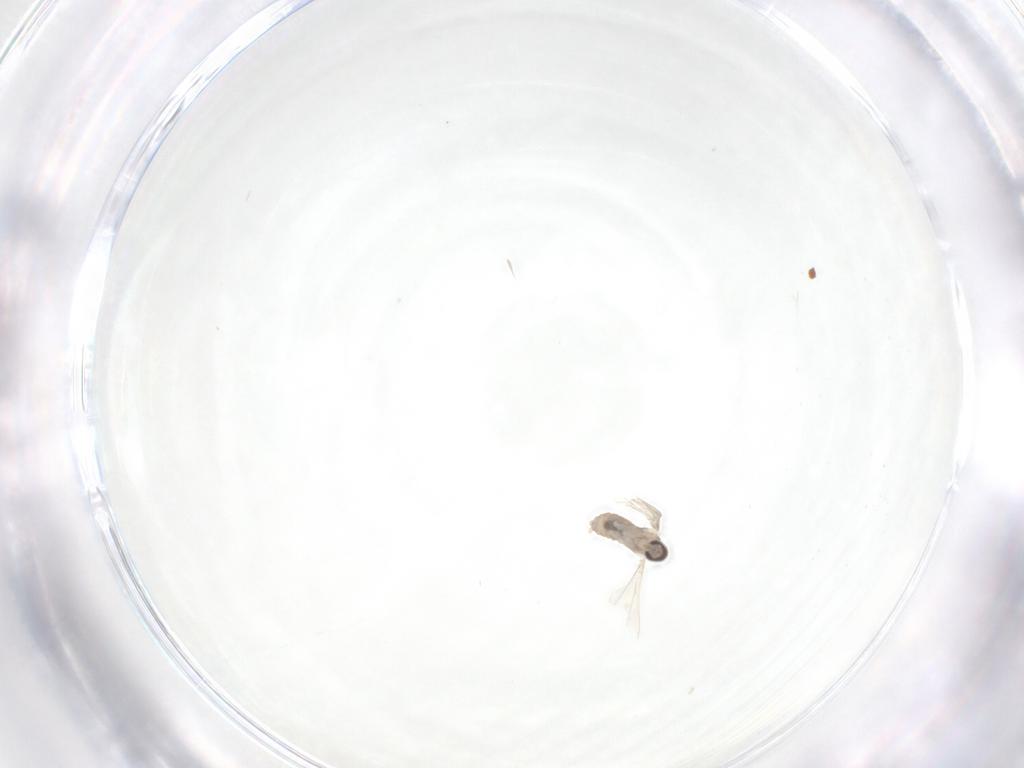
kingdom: Animalia
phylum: Arthropoda
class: Insecta
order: Diptera
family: Cecidomyiidae
